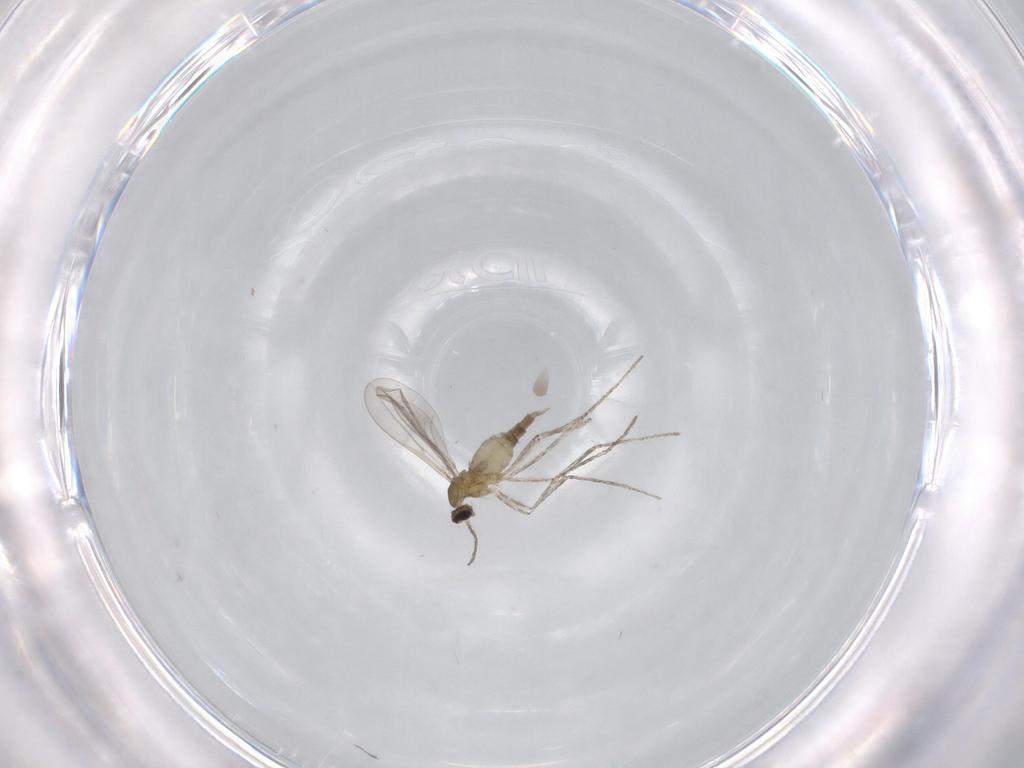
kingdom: Animalia
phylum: Arthropoda
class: Insecta
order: Diptera
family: Cecidomyiidae
